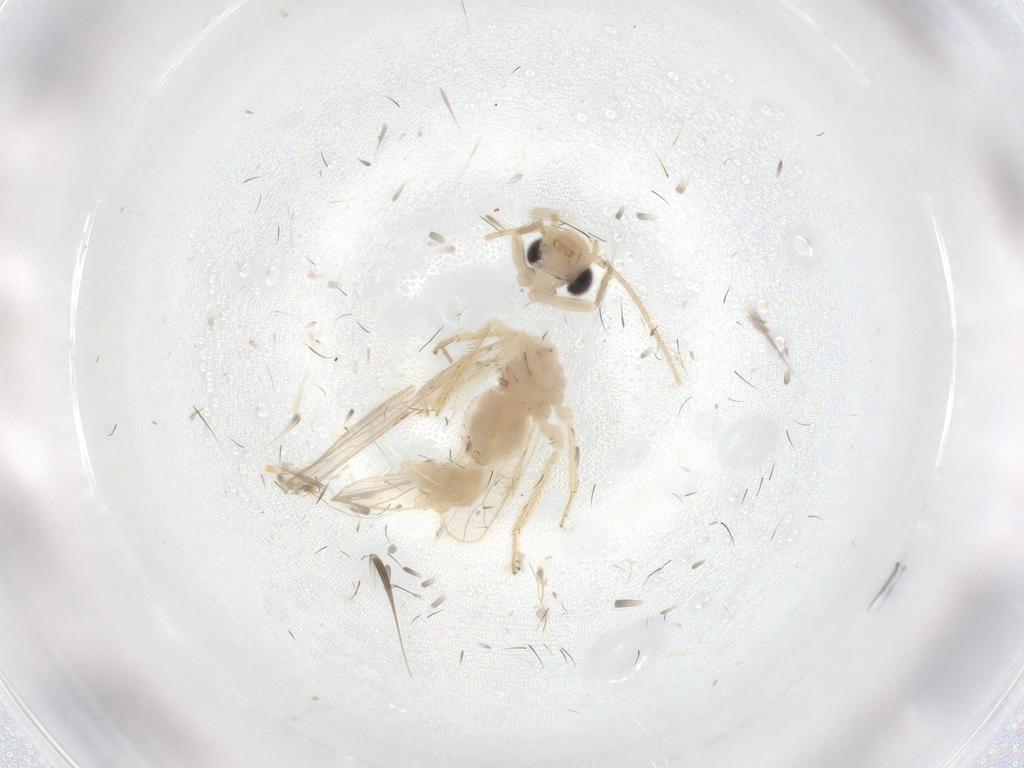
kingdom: Animalia
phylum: Arthropoda
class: Insecta
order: Psocodea
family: Cladiopsocidae
